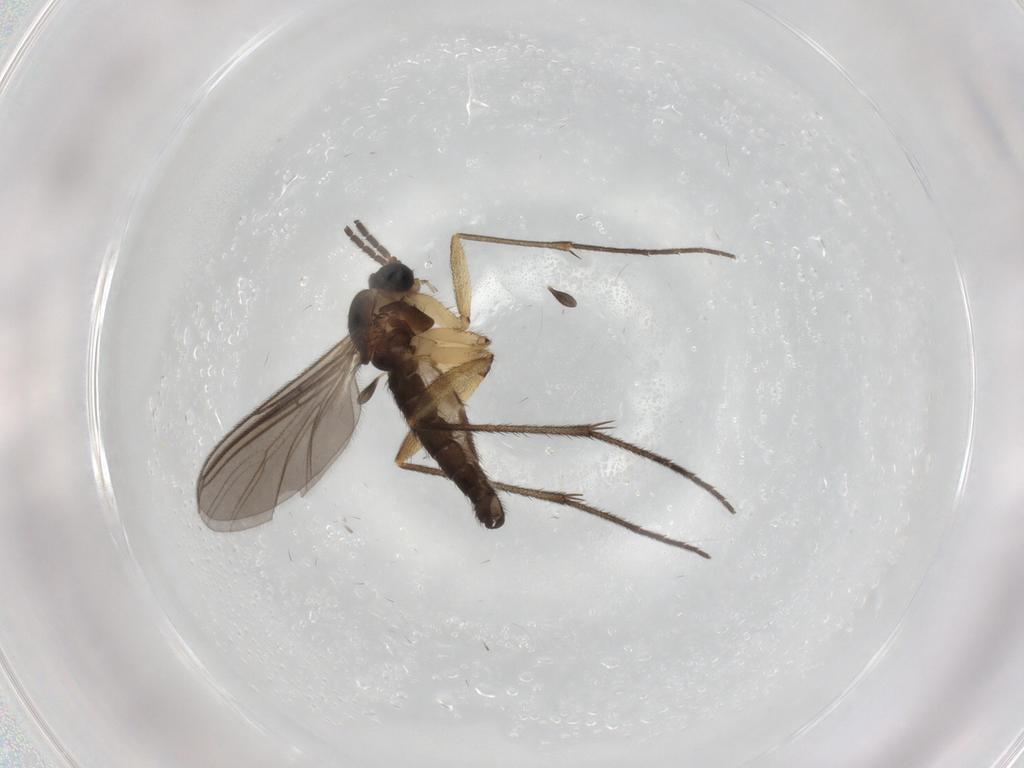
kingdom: Animalia
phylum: Arthropoda
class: Insecta
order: Diptera
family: Sciaridae
